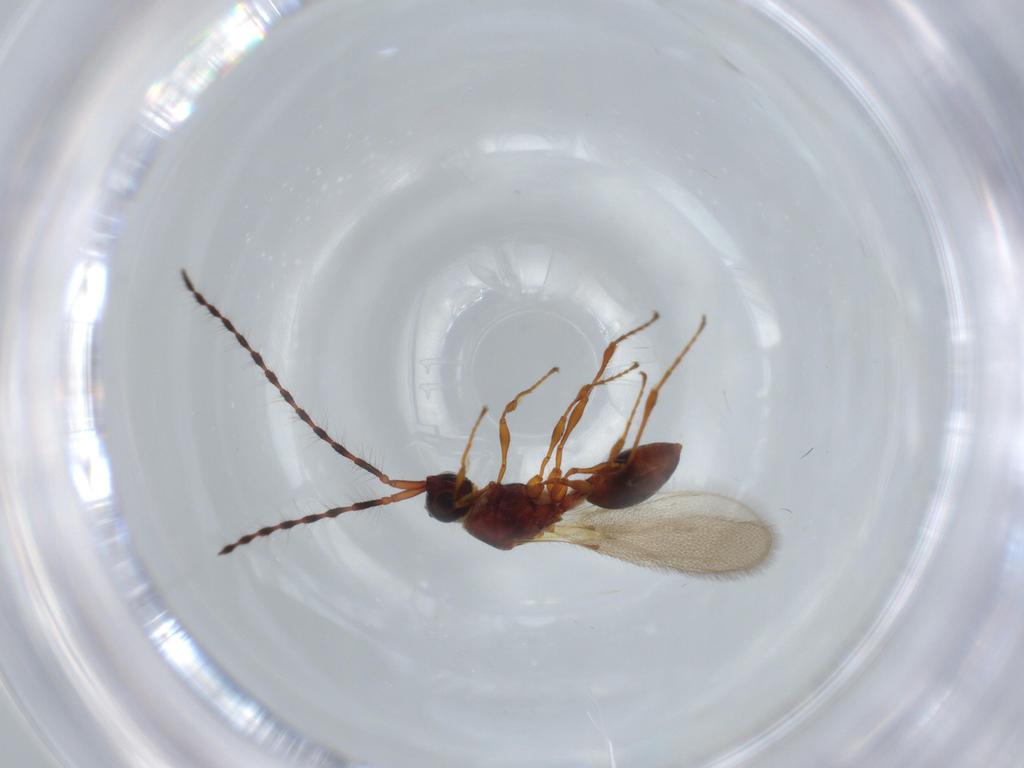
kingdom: Animalia
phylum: Arthropoda
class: Insecta
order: Hymenoptera
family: Diapriidae
